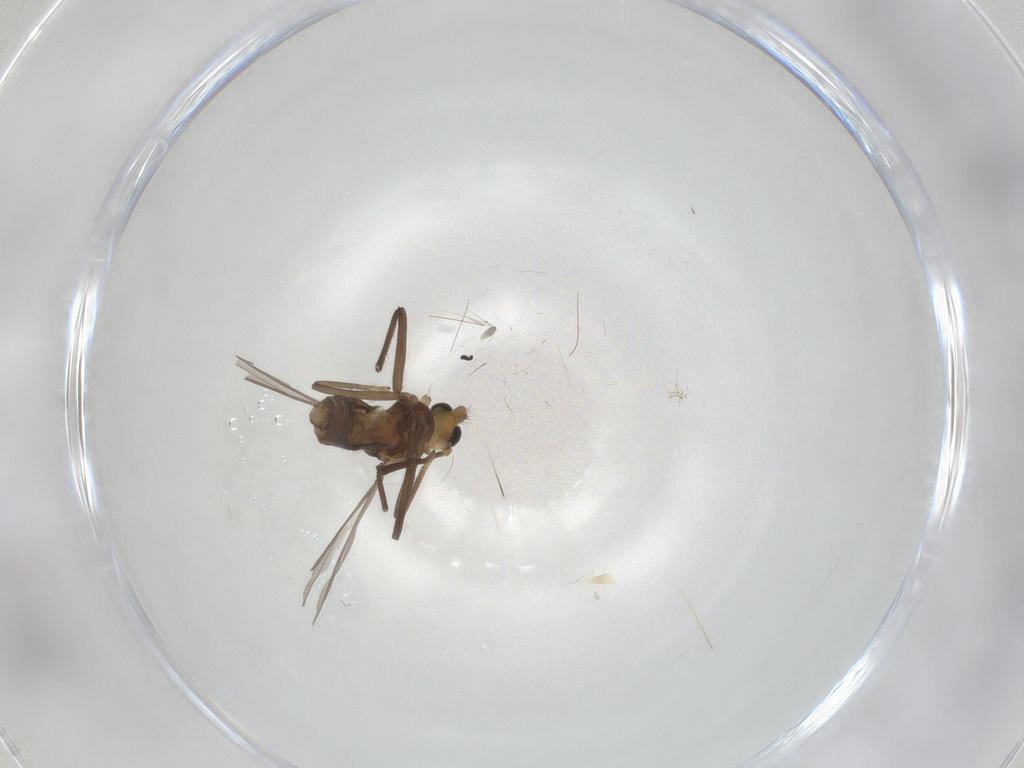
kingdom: Animalia
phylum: Arthropoda
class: Insecta
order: Diptera
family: Chironomidae
